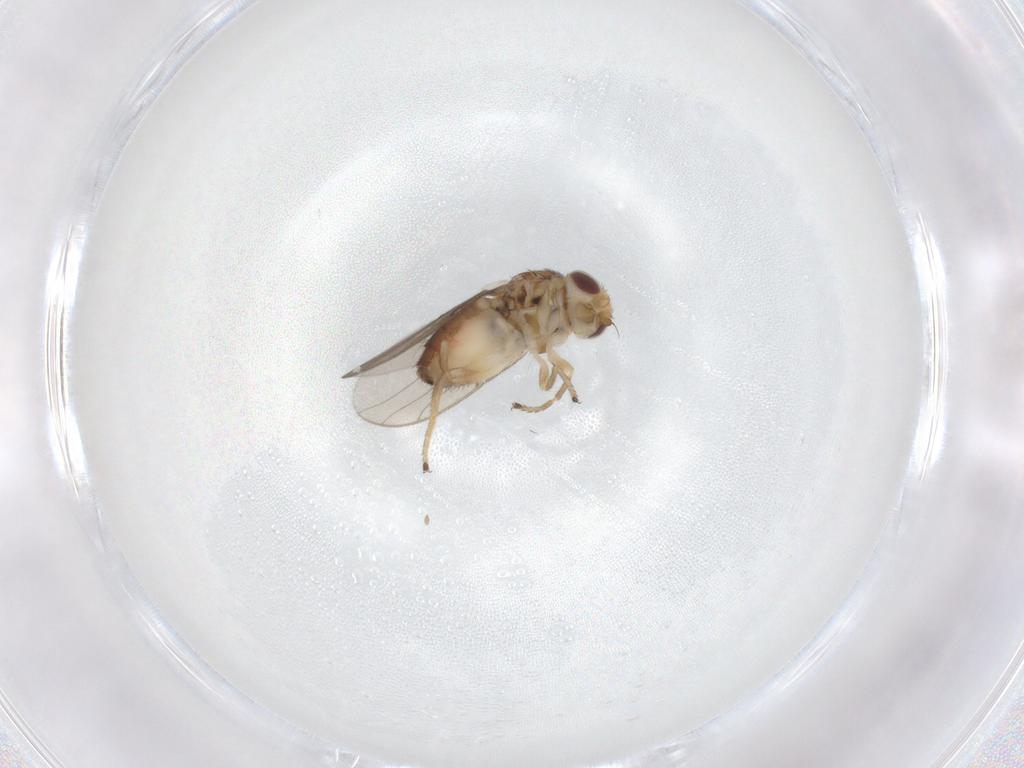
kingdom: Animalia
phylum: Arthropoda
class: Insecta
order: Diptera
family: Chloropidae
